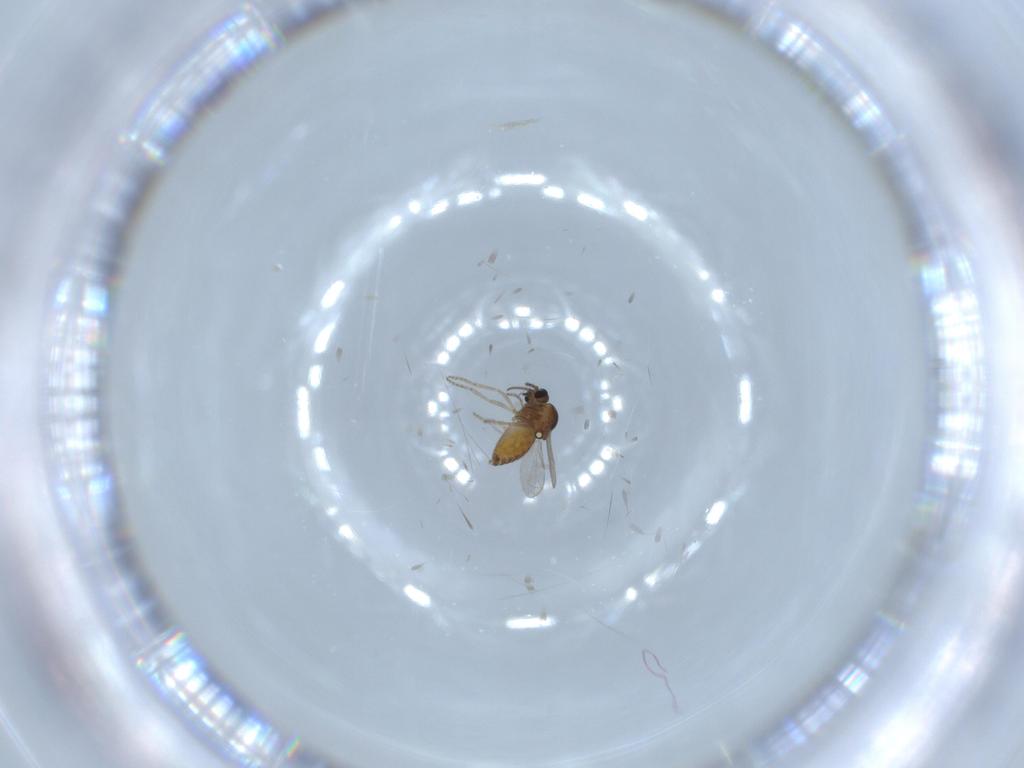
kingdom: Animalia
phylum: Arthropoda
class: Insecta
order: Diptera
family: Ceratopogonidae
